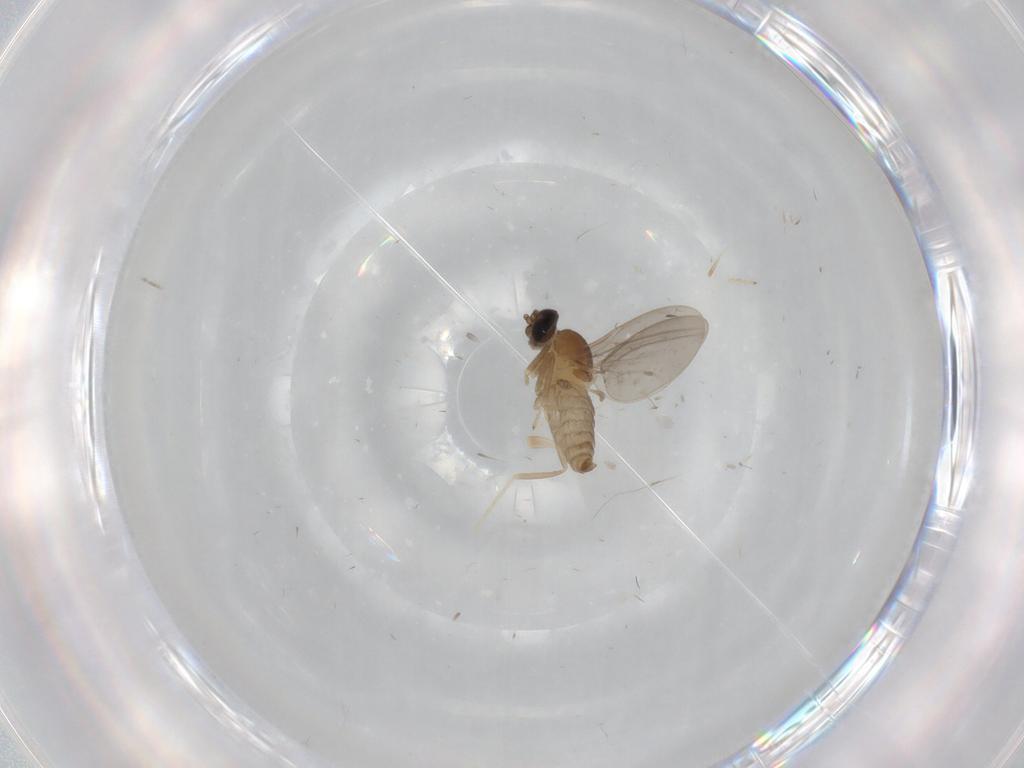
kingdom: Animalia
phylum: Arthropoda
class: Insecta
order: Diptera
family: Cecidomyiidae
